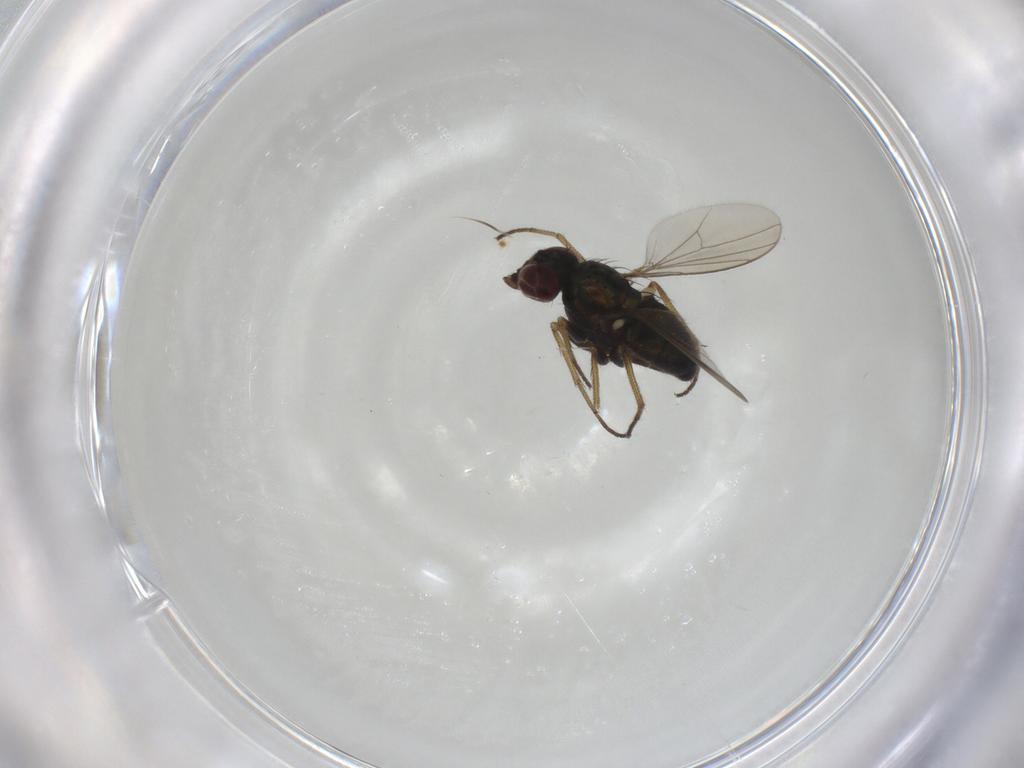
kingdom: Animalia
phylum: Arthropoda
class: Insecta
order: Diptera
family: Dolichopodidae
